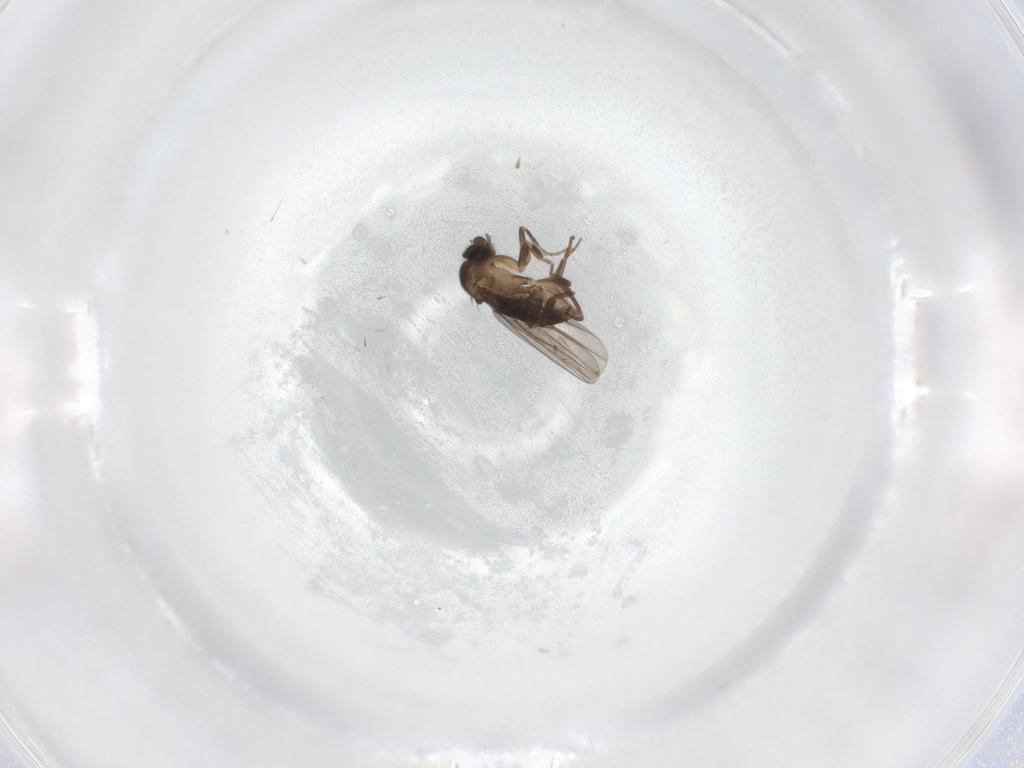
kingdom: Animalia
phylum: Arthropoda
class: Insecta
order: Diptera
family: Cecidomyiidae
